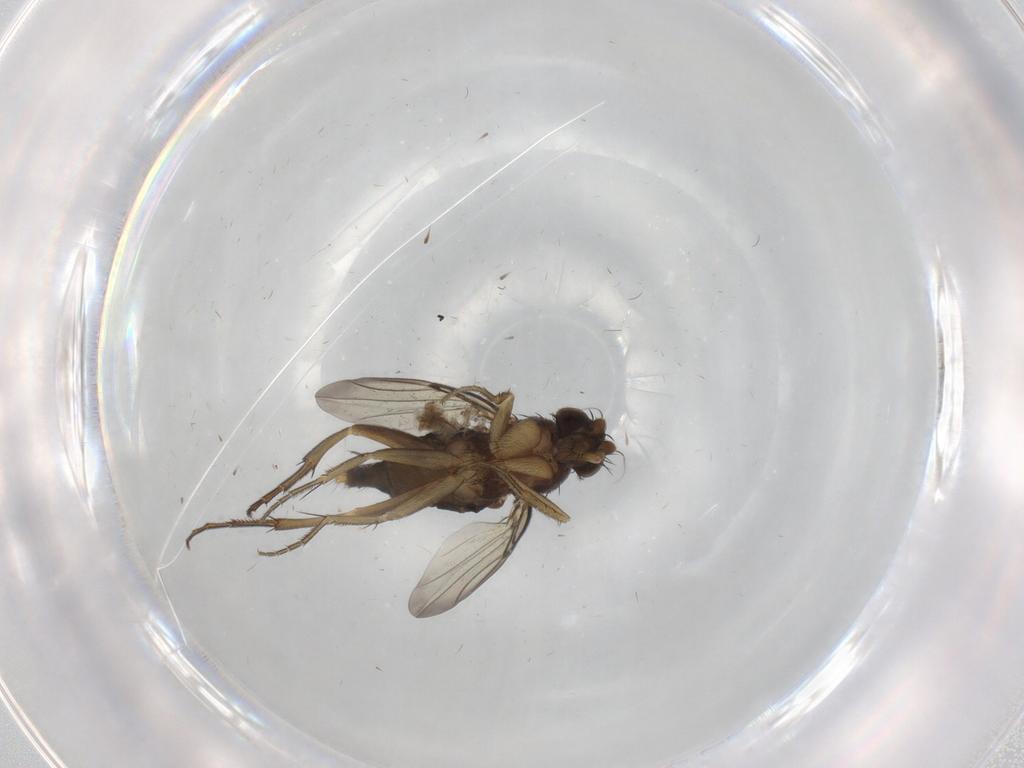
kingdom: Animalia
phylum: Arthropoda
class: Insecta
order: Diptera
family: Phoridae
